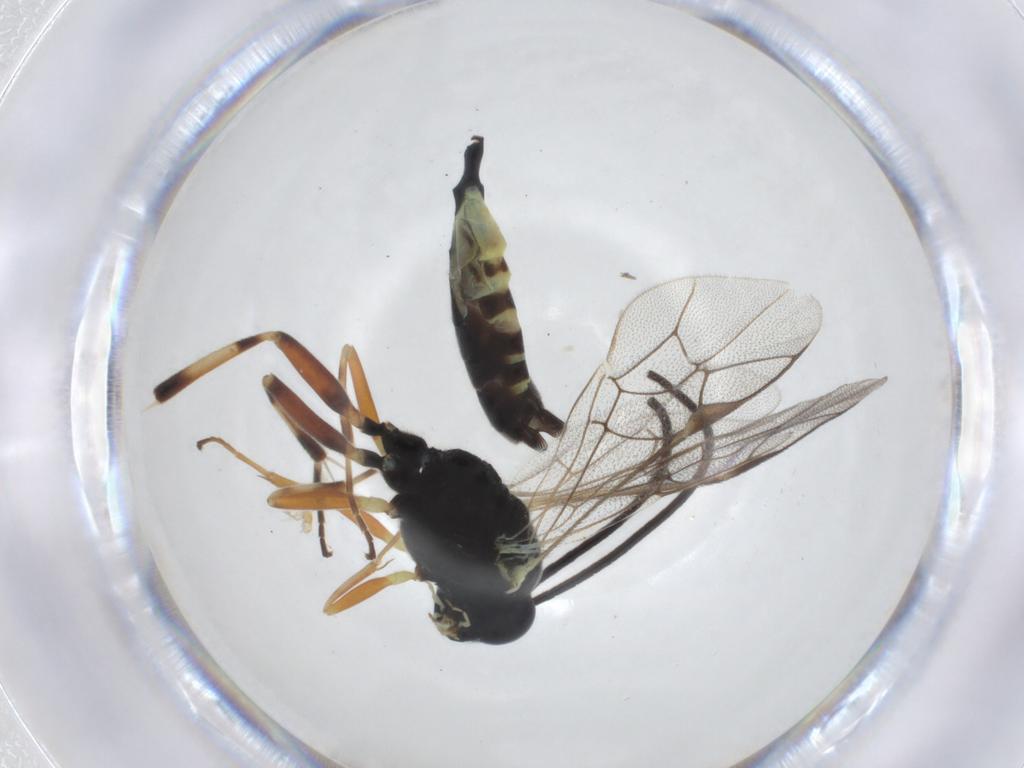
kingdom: Animalia
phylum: Arthropoda
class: Insecta
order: Hymenoptera
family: Ichneumonidae
